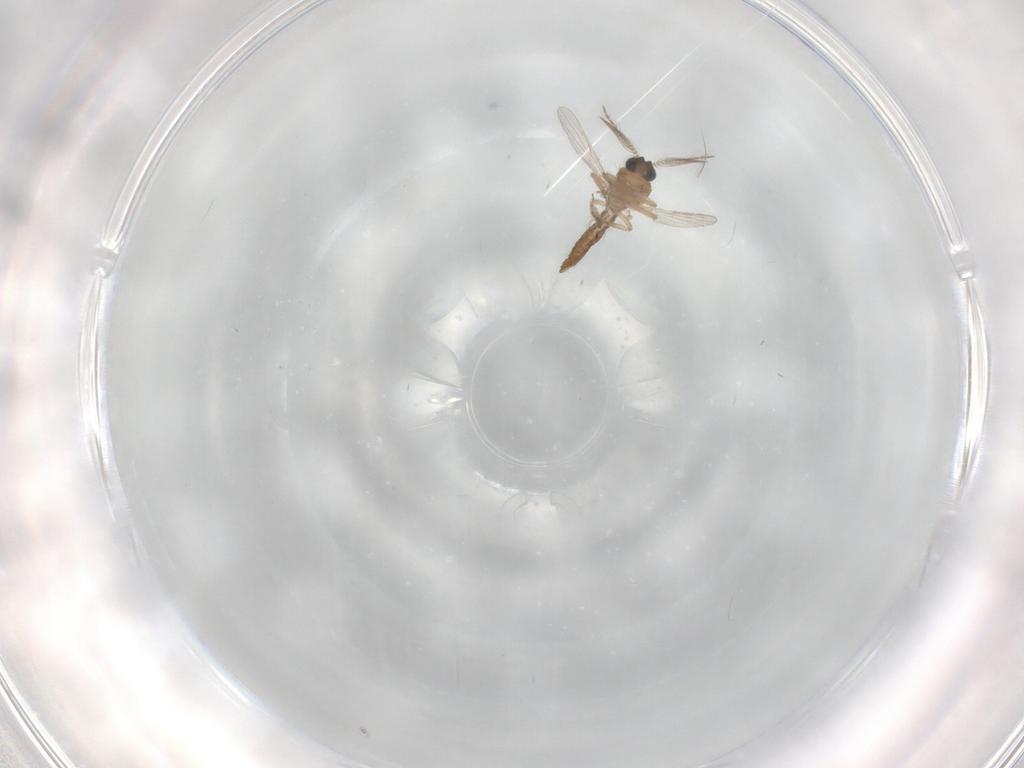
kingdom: Animalia
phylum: Arthropoda
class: Insecta
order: Diptera
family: Ceratopogonidae
